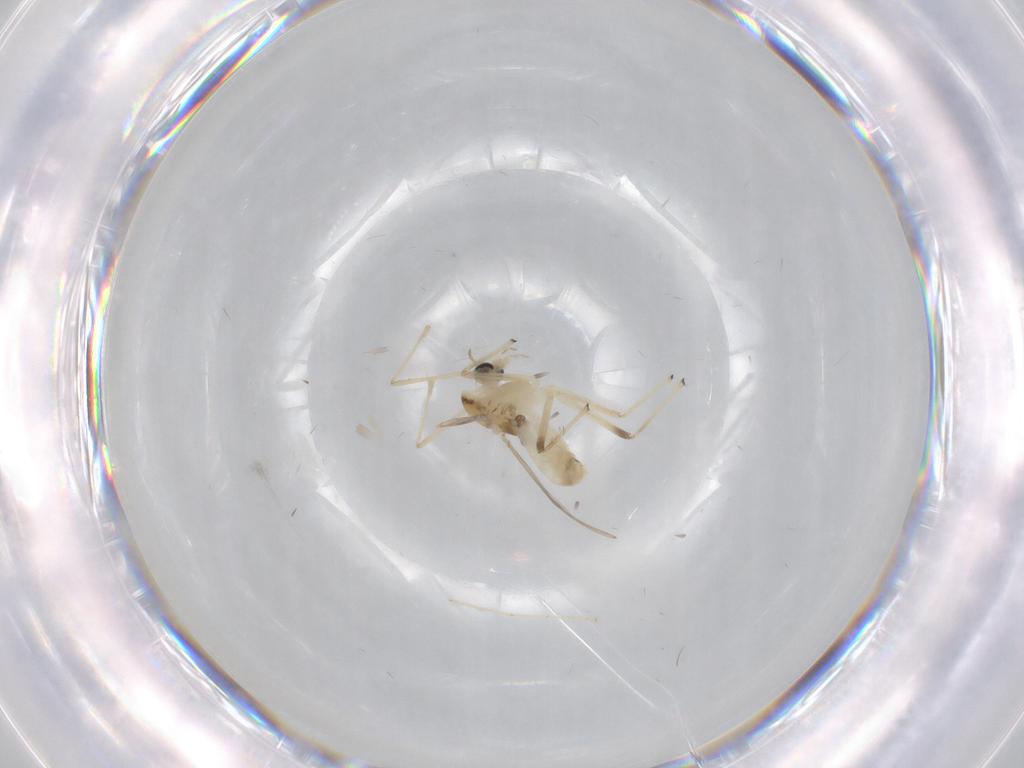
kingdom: Animalia
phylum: Arthropoda
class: Insecta
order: Diptera
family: Chironomidae
